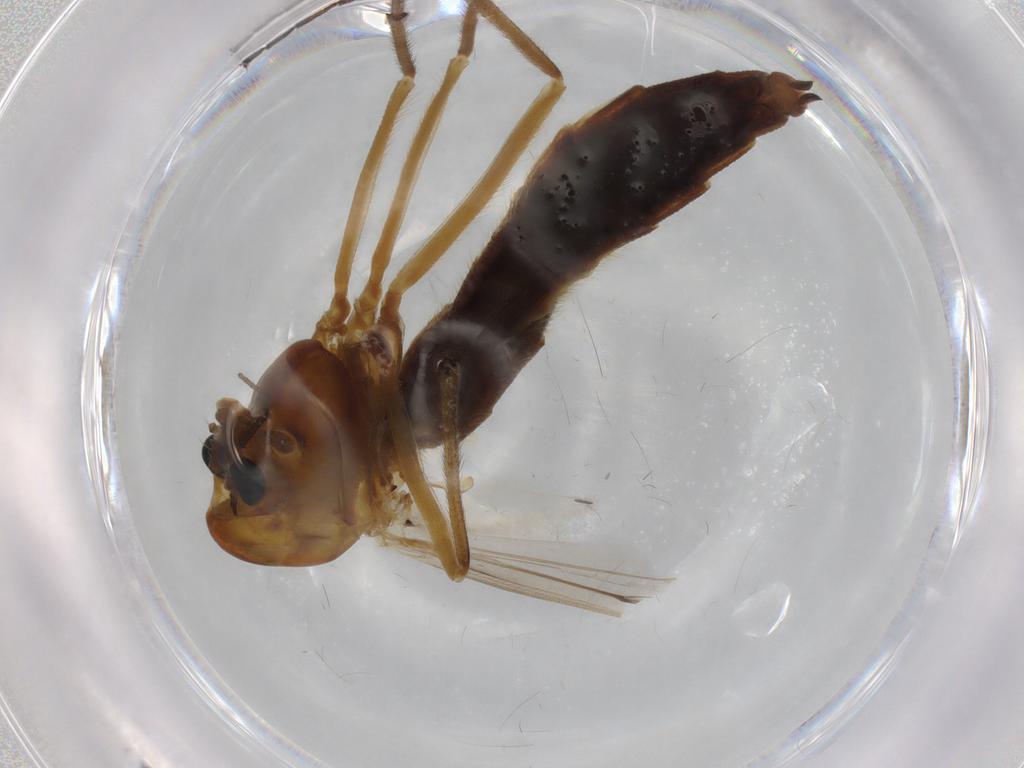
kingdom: Animalia
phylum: Arthropoda
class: Insecta
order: Diptera
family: Chironomidae
